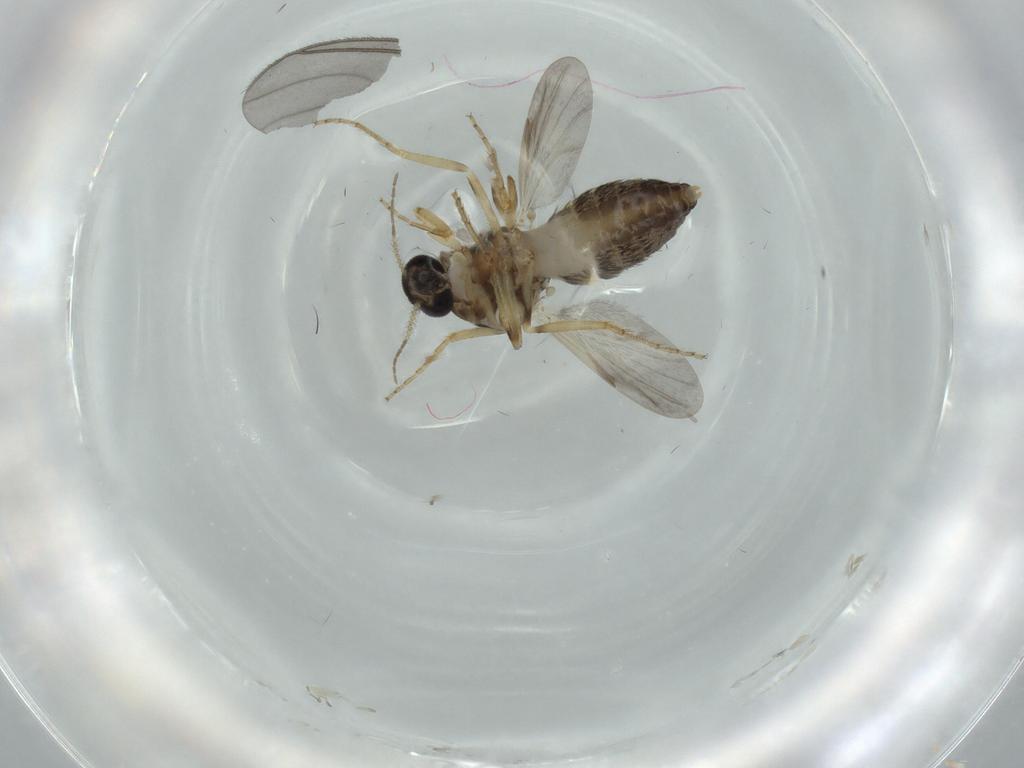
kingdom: Animalia
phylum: Arthropoda
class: Insecta
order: Diptera
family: Ceratopogonidae
